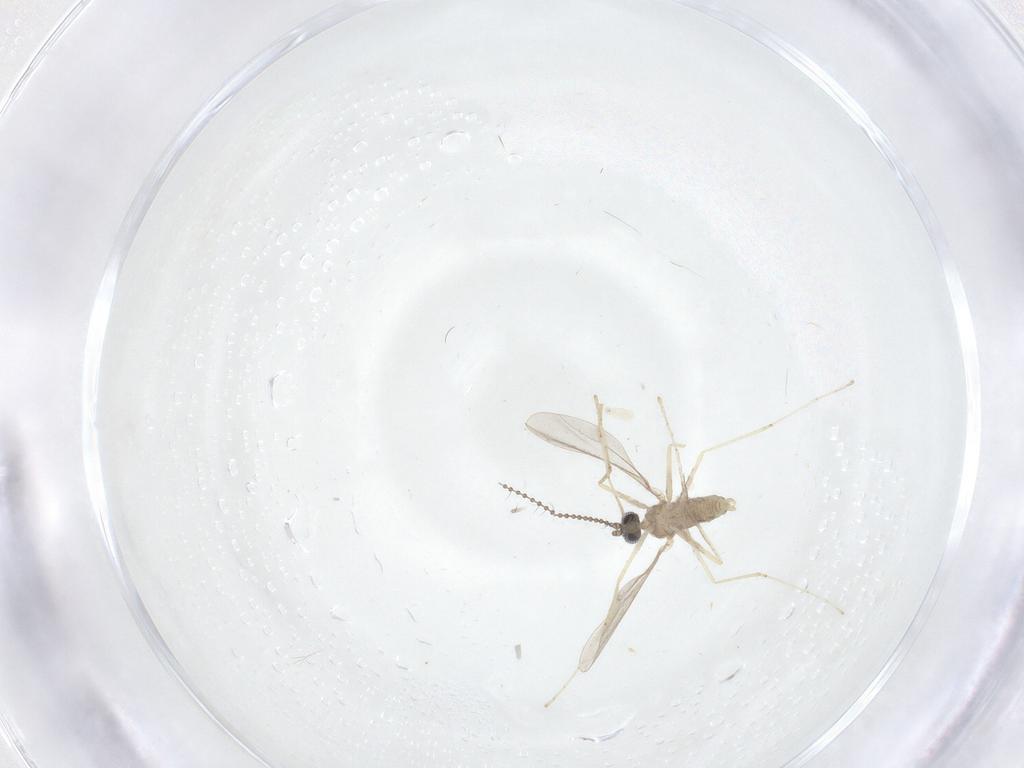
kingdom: Animalia
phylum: Arthropoda
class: Insecta
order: Diptera
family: Cecidomyiidae
